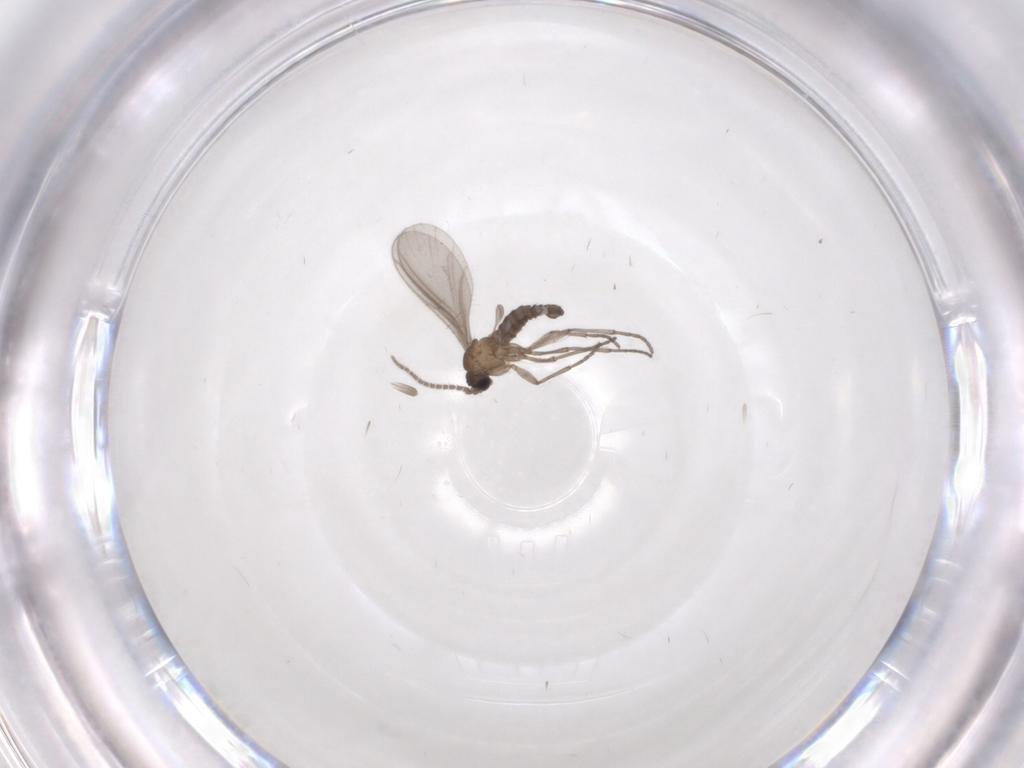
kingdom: Animalia
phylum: Arthropoda
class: Insecta
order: Diptera
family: Sciaridae
